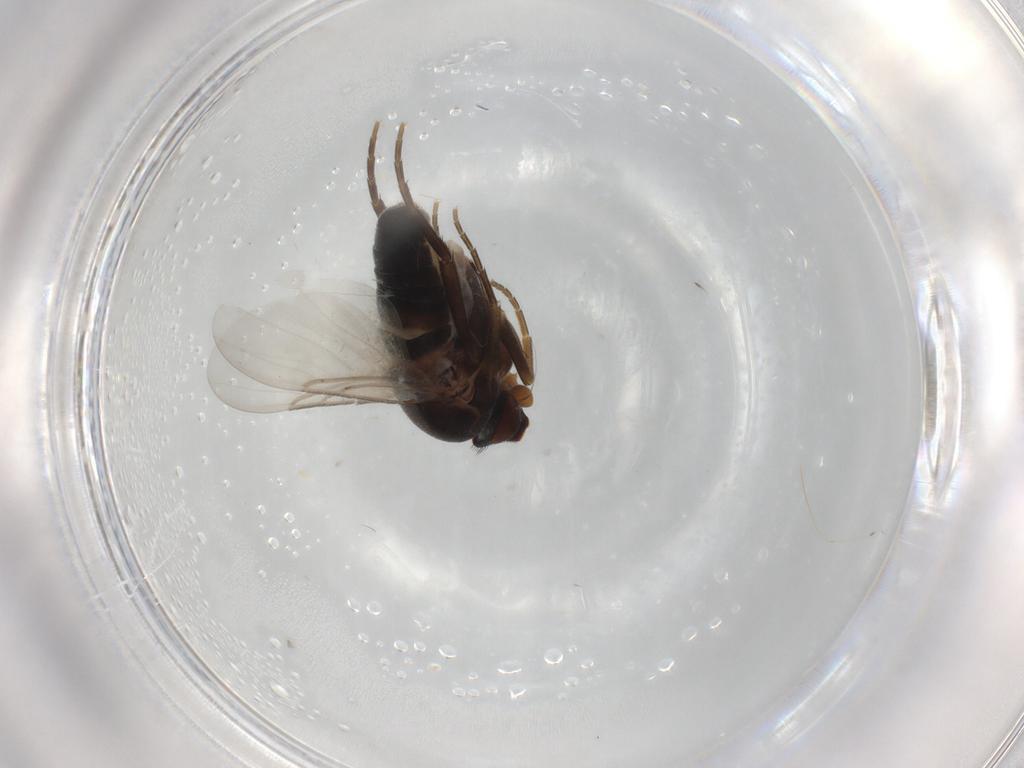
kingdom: Animalia
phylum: Arthropoda
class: Insecta
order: Diptera
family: Phoridae
